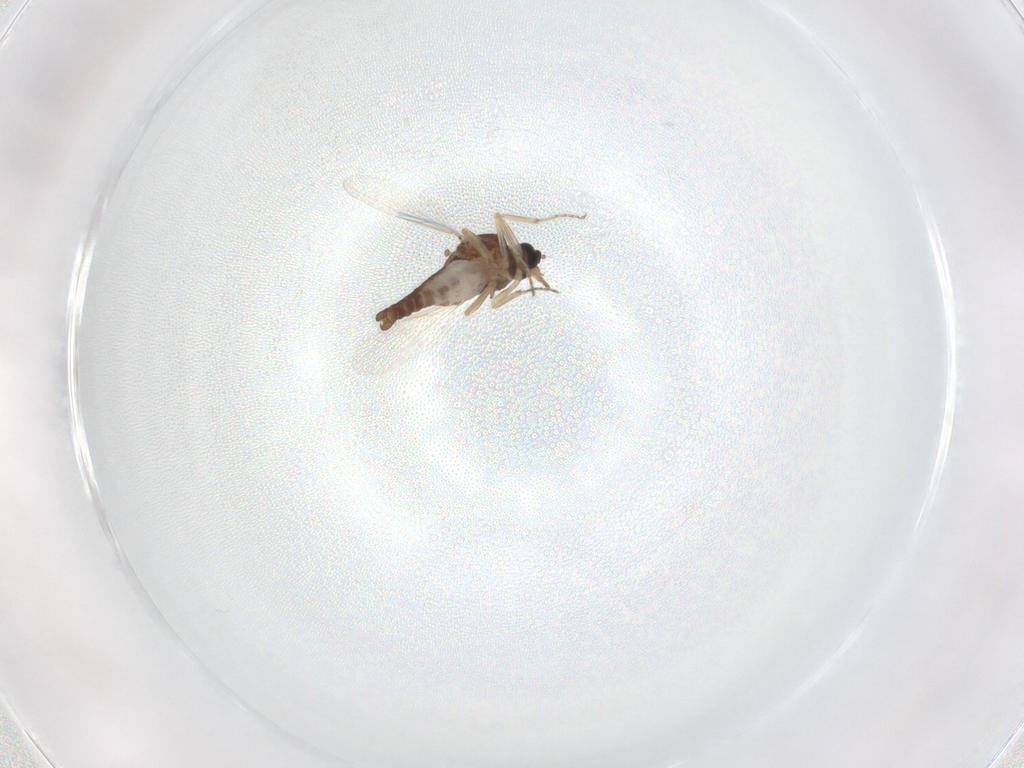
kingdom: Animalia
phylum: Arthropoda
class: Insecta
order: Diptera
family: Ceratopogonidae
